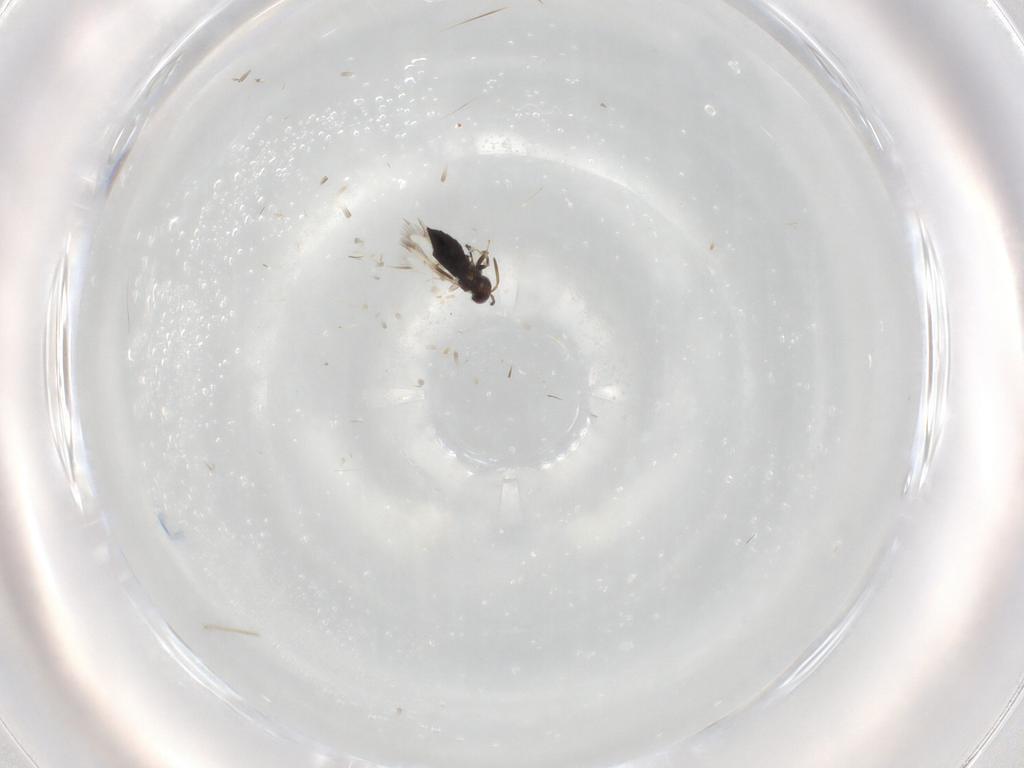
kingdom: Animalia
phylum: Arthropoda
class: Insecta
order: Hymenoptera
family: Signiphoridae
